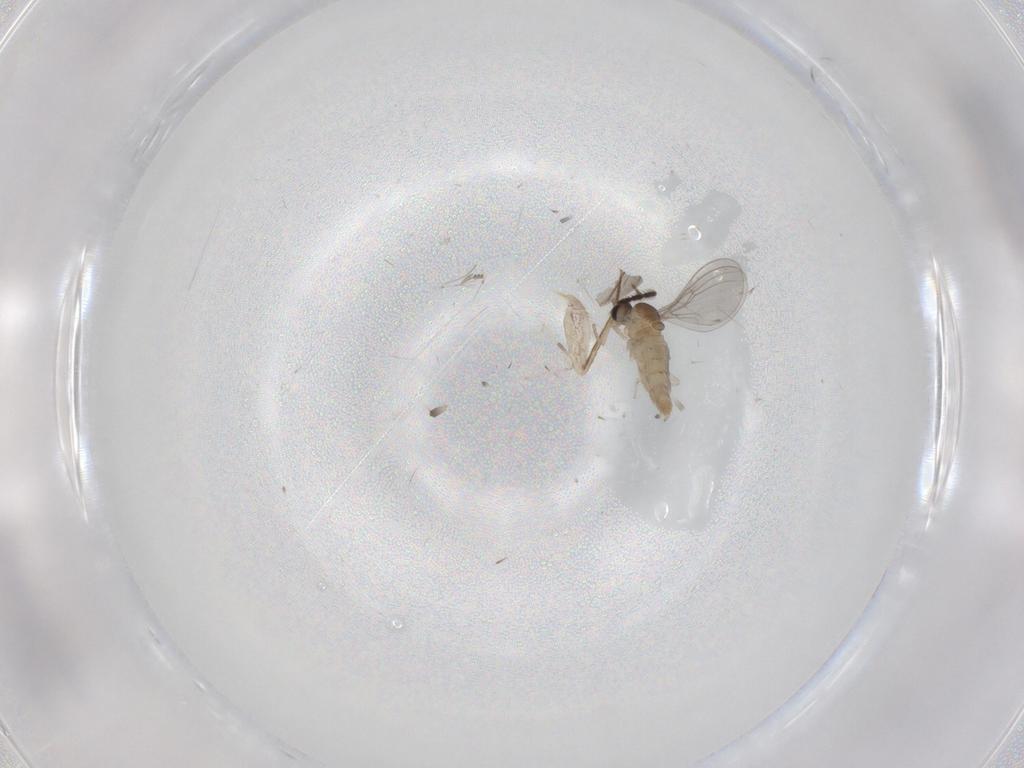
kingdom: Animalia
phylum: Arthropoda
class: Insecta
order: Diptera
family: Cecidomyiidae
